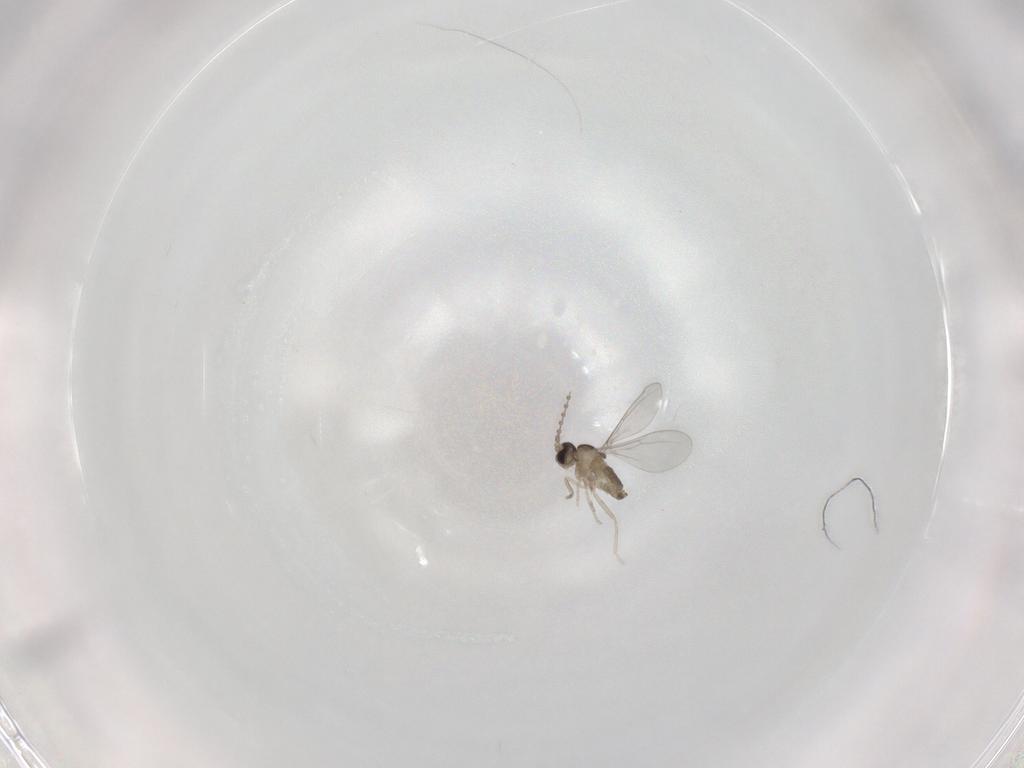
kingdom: Animalia
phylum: Arthropoda
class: Insecta
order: Diptera
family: Cecidomyiidae
